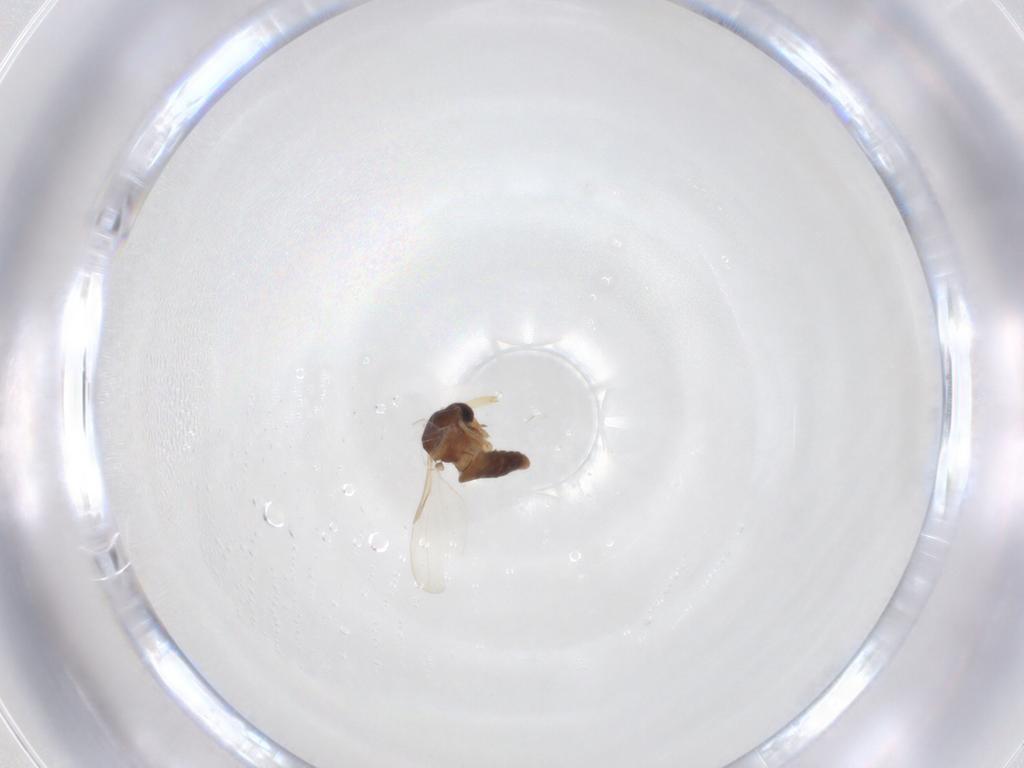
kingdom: Animalia
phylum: Arthropoda
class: Insecta
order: Diptera
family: Ceratopogonidae
